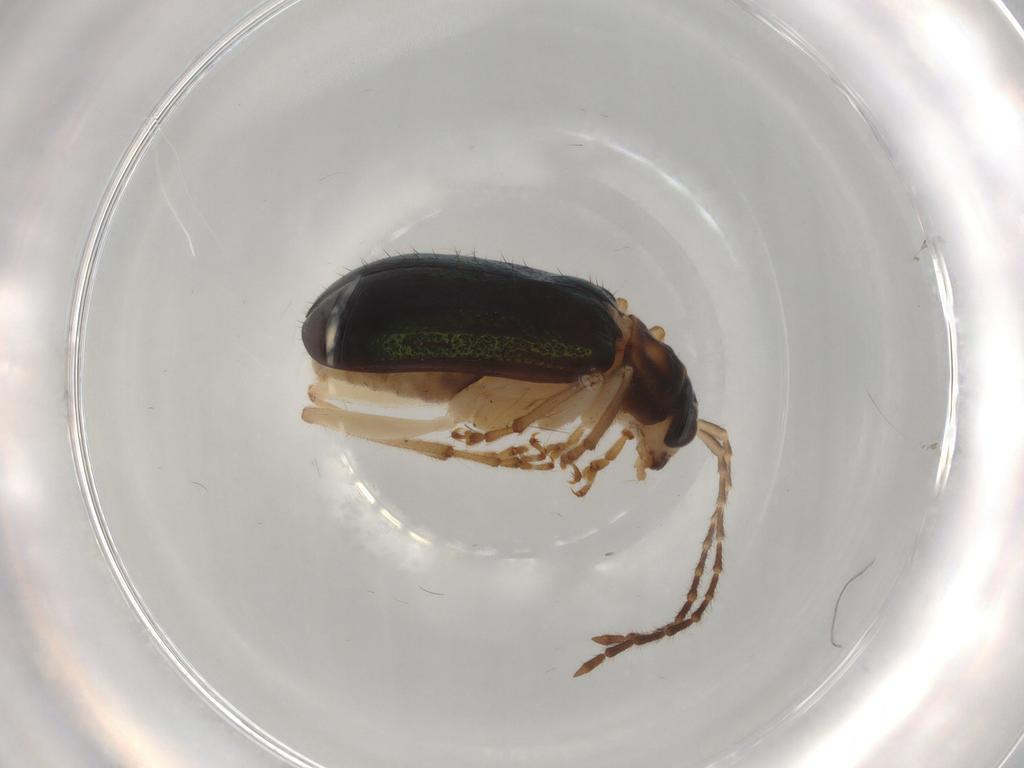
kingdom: Animalia
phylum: Arthropoda
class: Insecta
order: Coleoptera
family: Chrysomelidae
